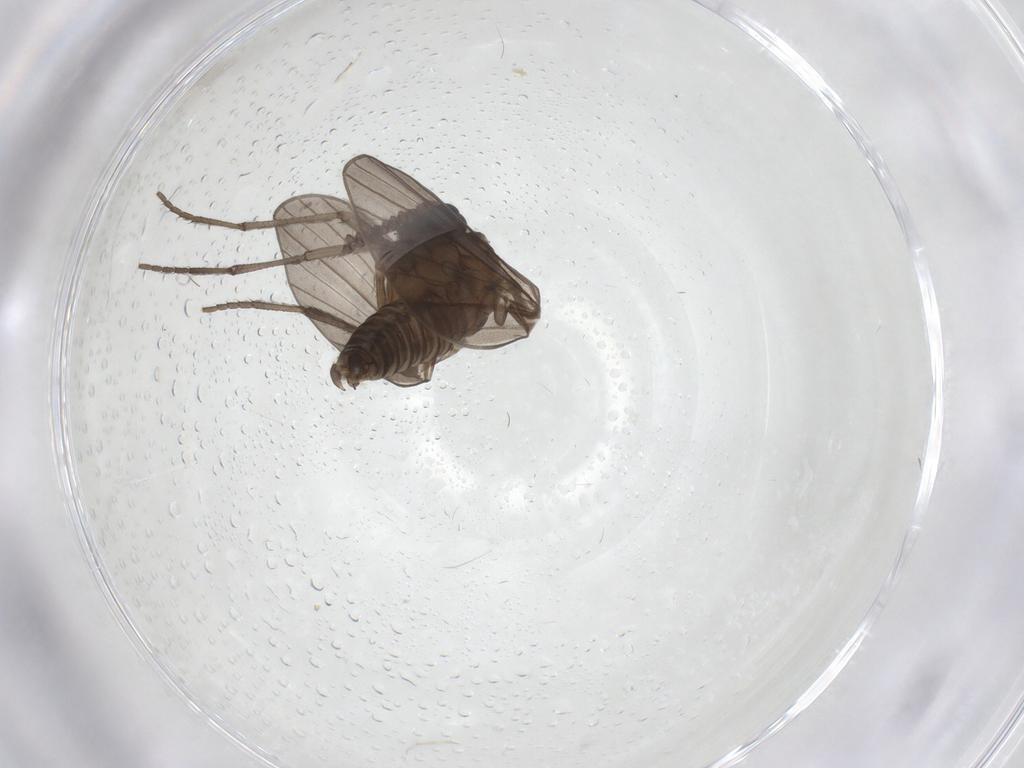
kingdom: Animalia
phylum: Arthropoda
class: Insecta
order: Diptera
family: Psychodidae
